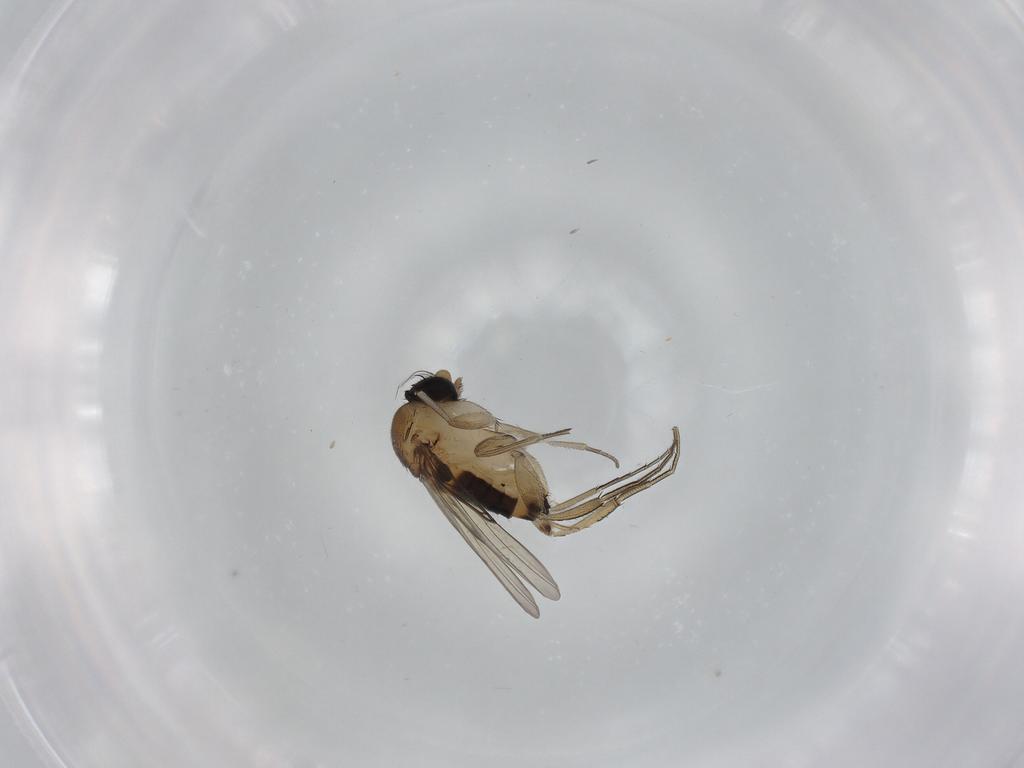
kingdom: Animalia
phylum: Arthropoda
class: Insecta
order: Diptera
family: Phoridae
